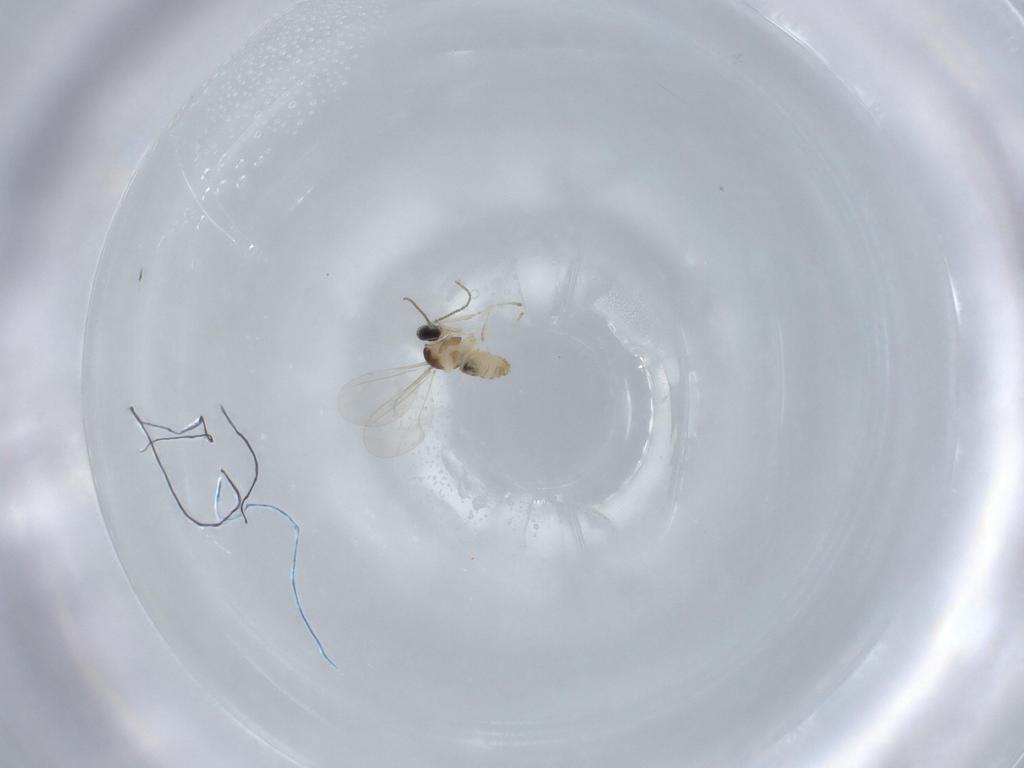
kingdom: Animalia
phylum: Arthropoda
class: Insecta
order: Diptera
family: Cecidomyiidae
